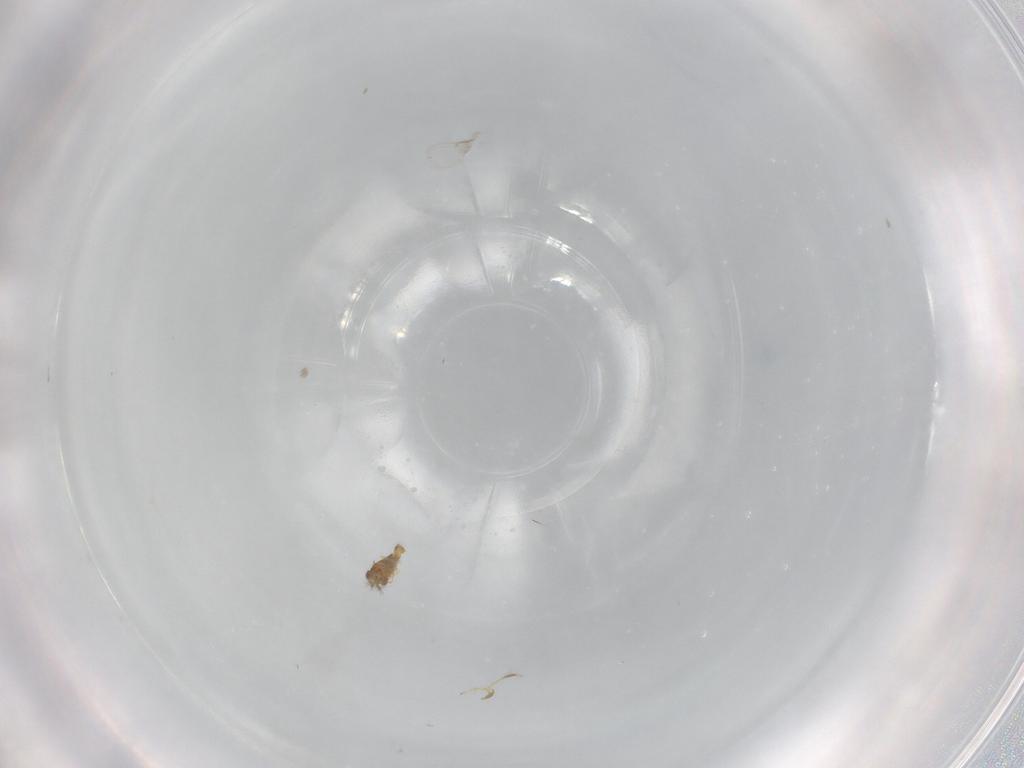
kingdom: Animalia
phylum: Arthropoda
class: Insecta
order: Hymenoptera
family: Trichogrammatidae
